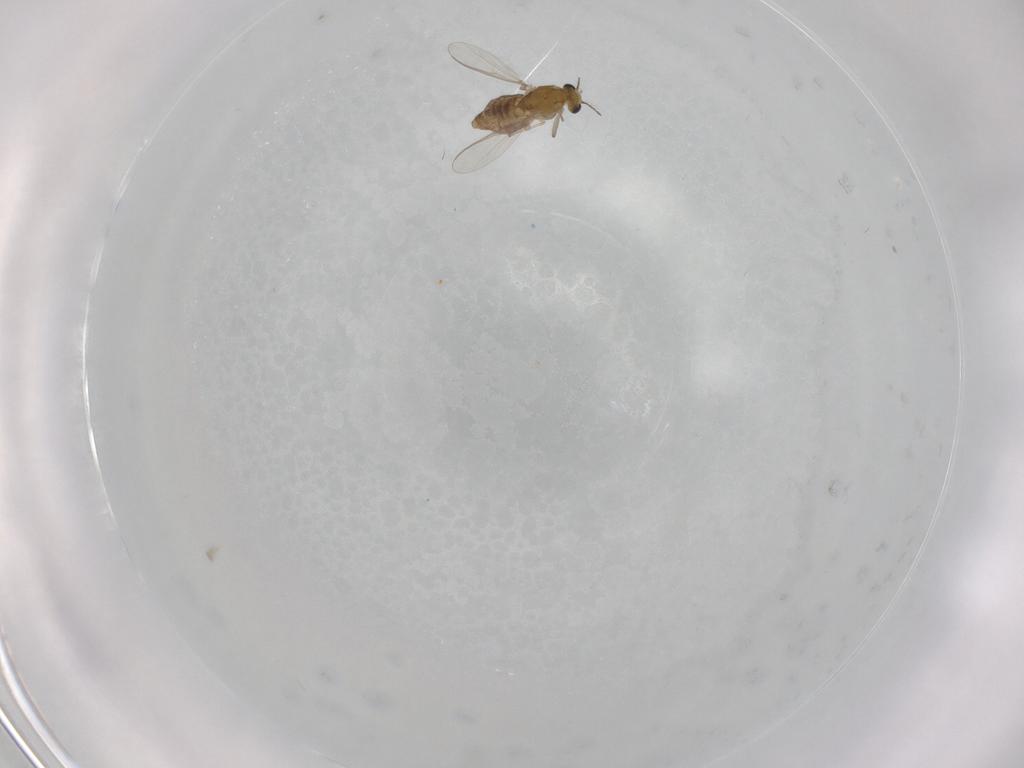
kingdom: Animalia
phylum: Arthropoda
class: Insecta
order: Diptera
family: Chironomidae
